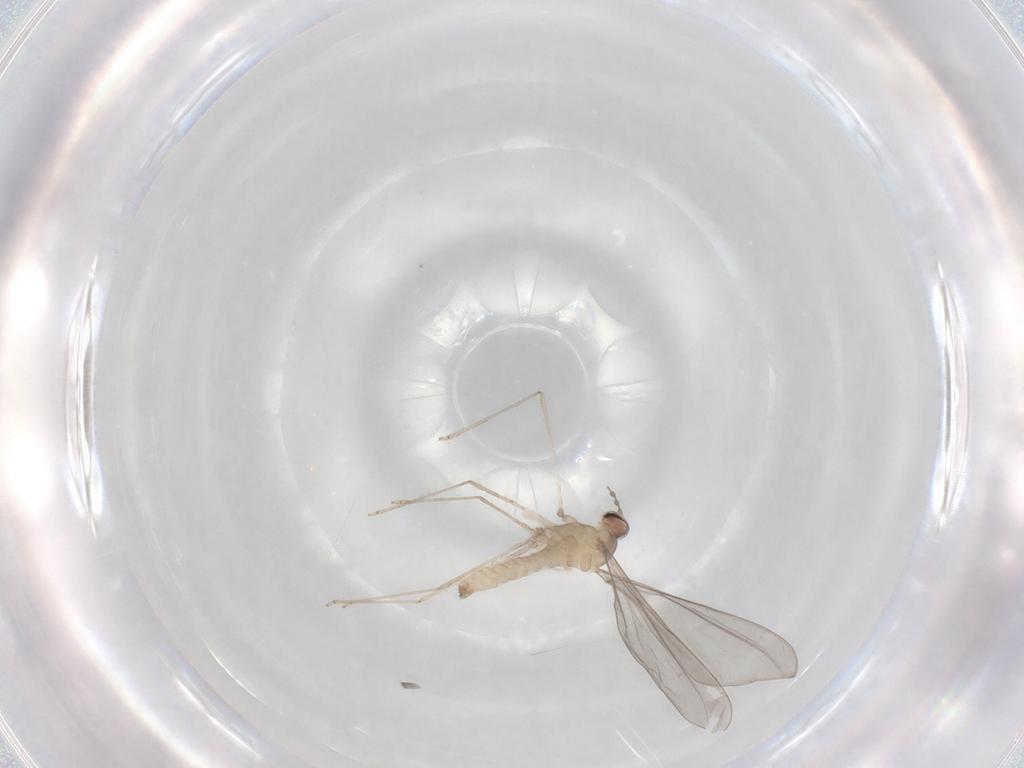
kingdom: Animalia
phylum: Arthropoda
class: Insecta
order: Diptera
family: Cecidomyiidae
